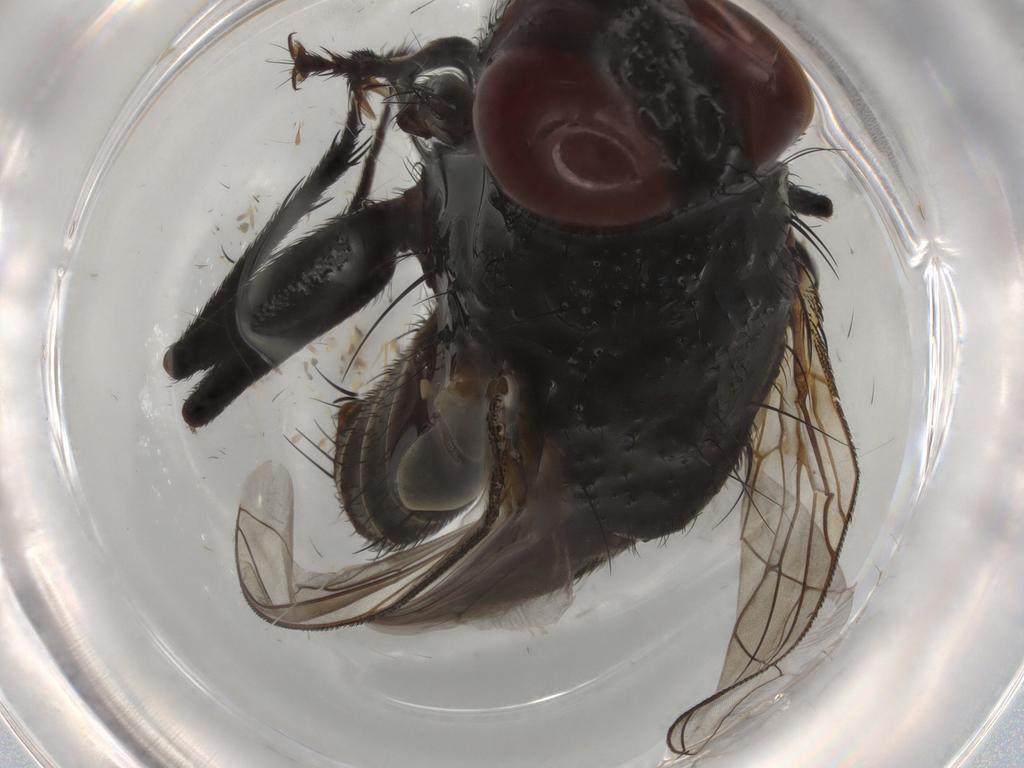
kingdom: Animalia
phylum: Arthropoda
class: Insecta
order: Diptera
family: Sarcophagidae
